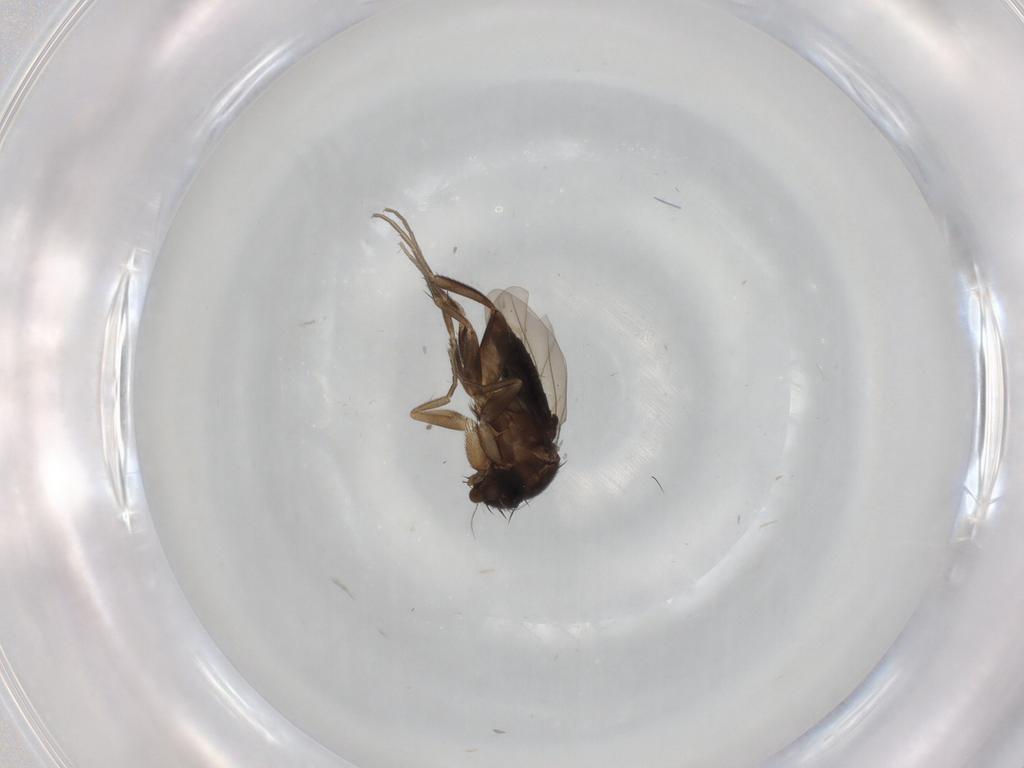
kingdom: Animalia
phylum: Arthropoda
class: Insecta
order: Diptera
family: Phoridae
